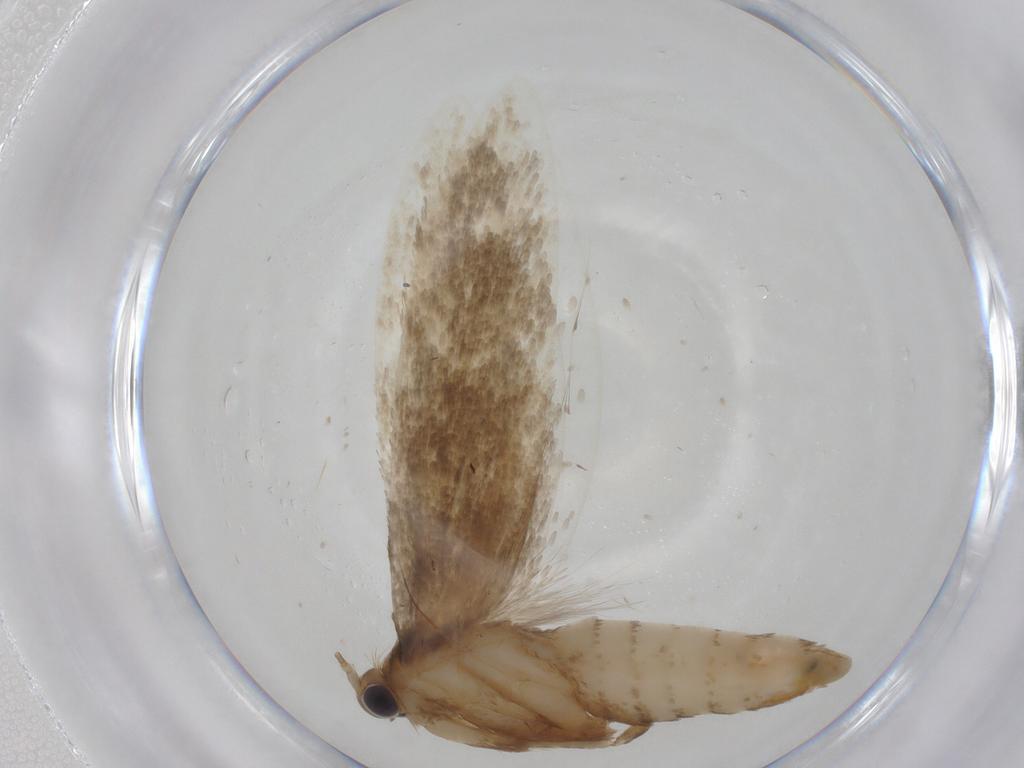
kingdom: Animalia
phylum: Arthropoda
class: Insecta
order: Lepidoptera
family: Tineidae
